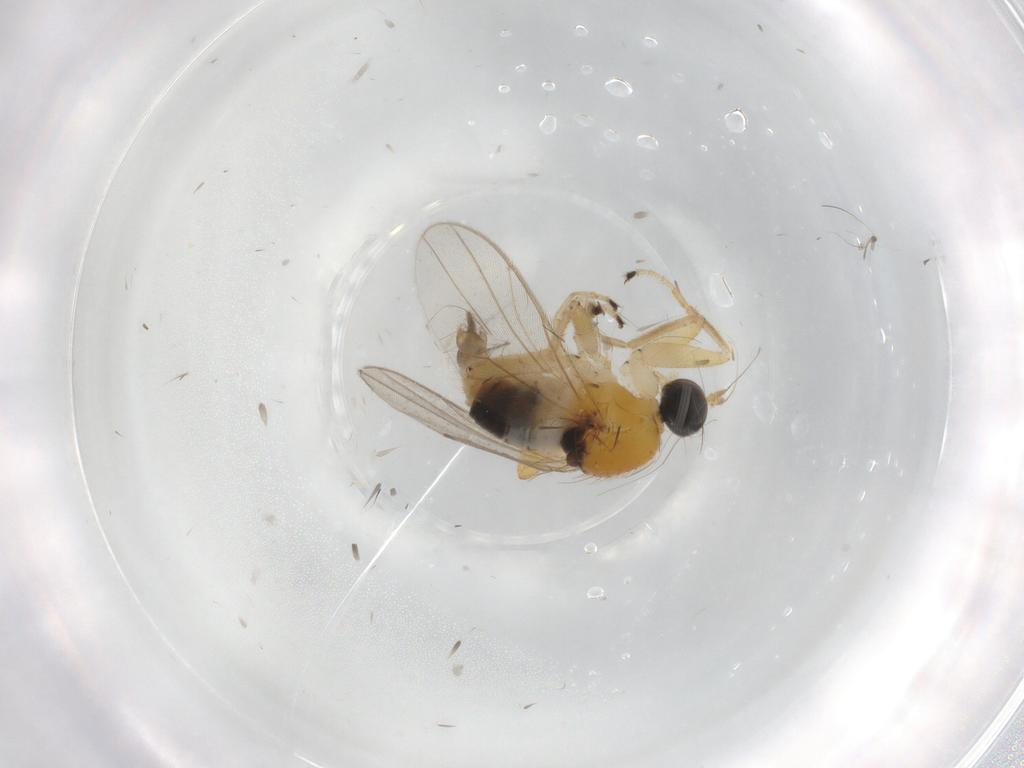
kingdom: Animalia
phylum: Arthropoda
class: Insecta
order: Diptera
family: Hybotidae
